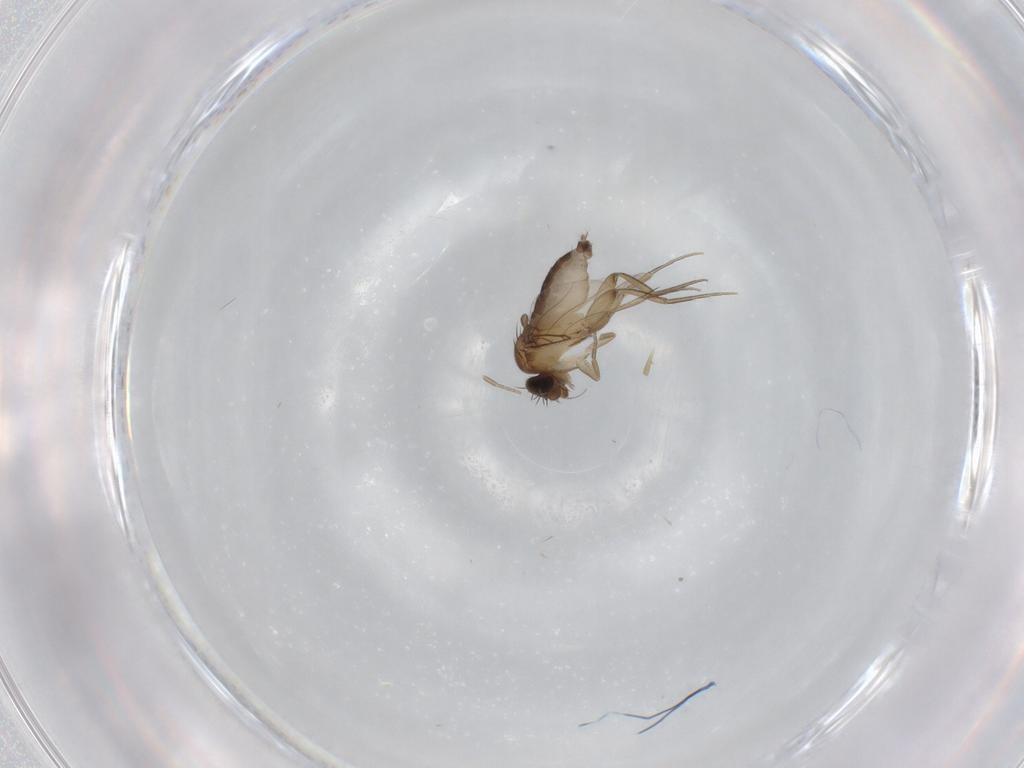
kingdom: Animalia
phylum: Arthropoda
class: Insecta
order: Diptera
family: Phoridae
